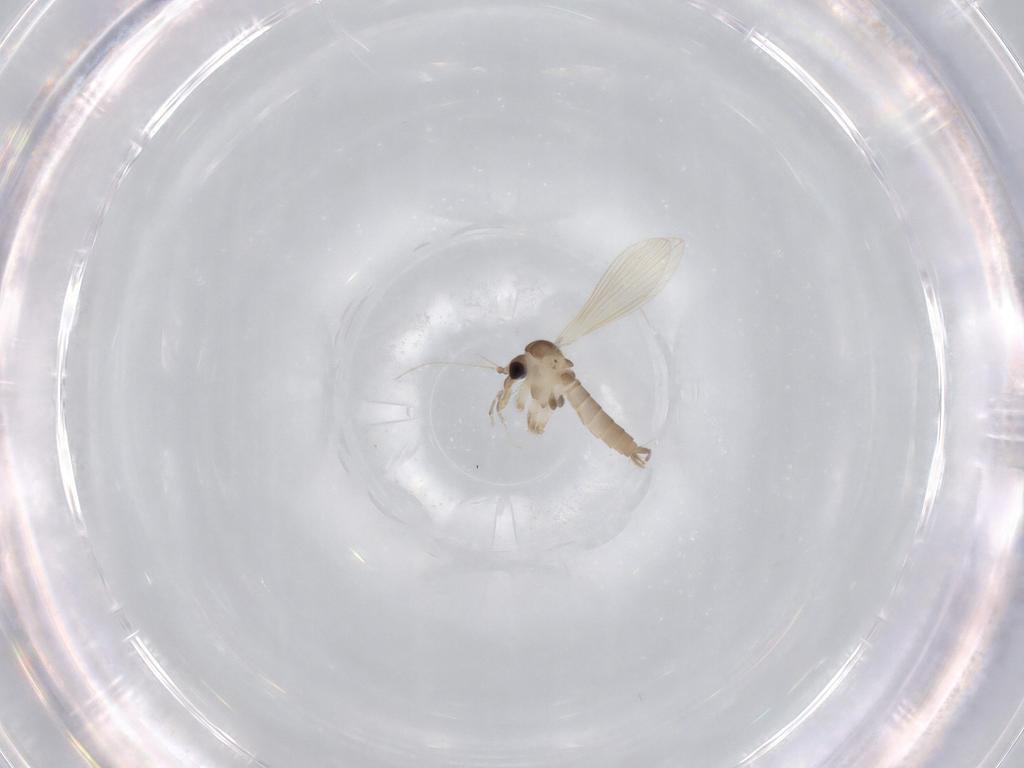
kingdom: Animalia
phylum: Arthropoda
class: Insecta
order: Diptera
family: Psychodidae
